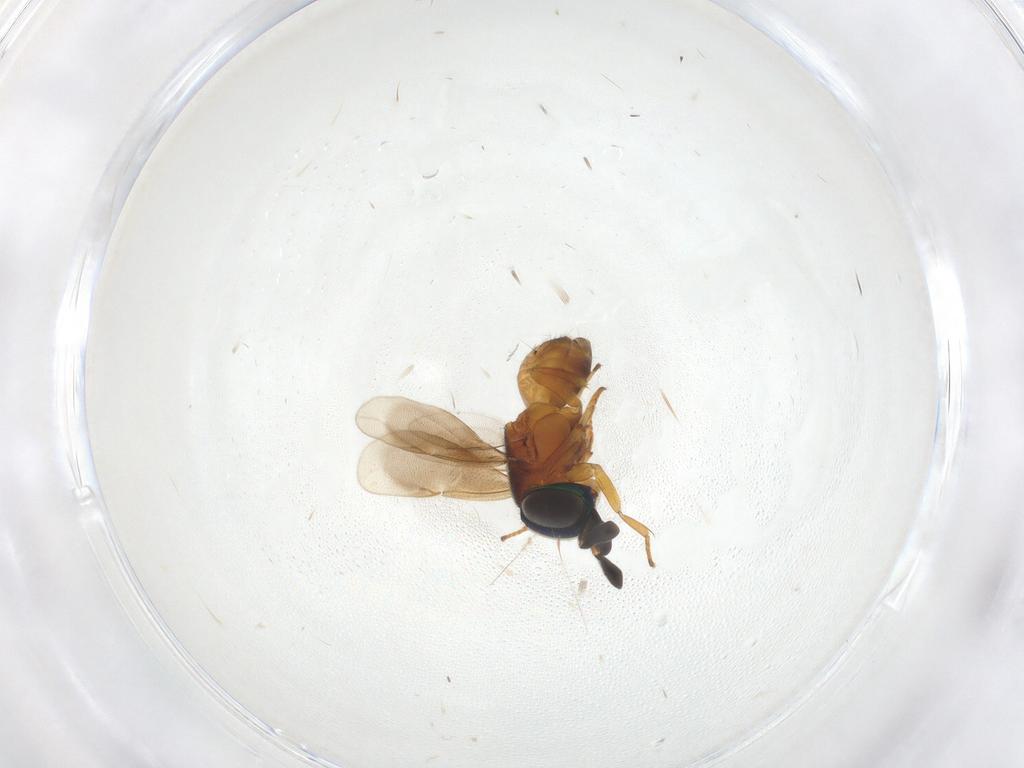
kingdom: Animalia
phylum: Arthropoda
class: Insecta
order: Hymenoptera
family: Encyrtidae
